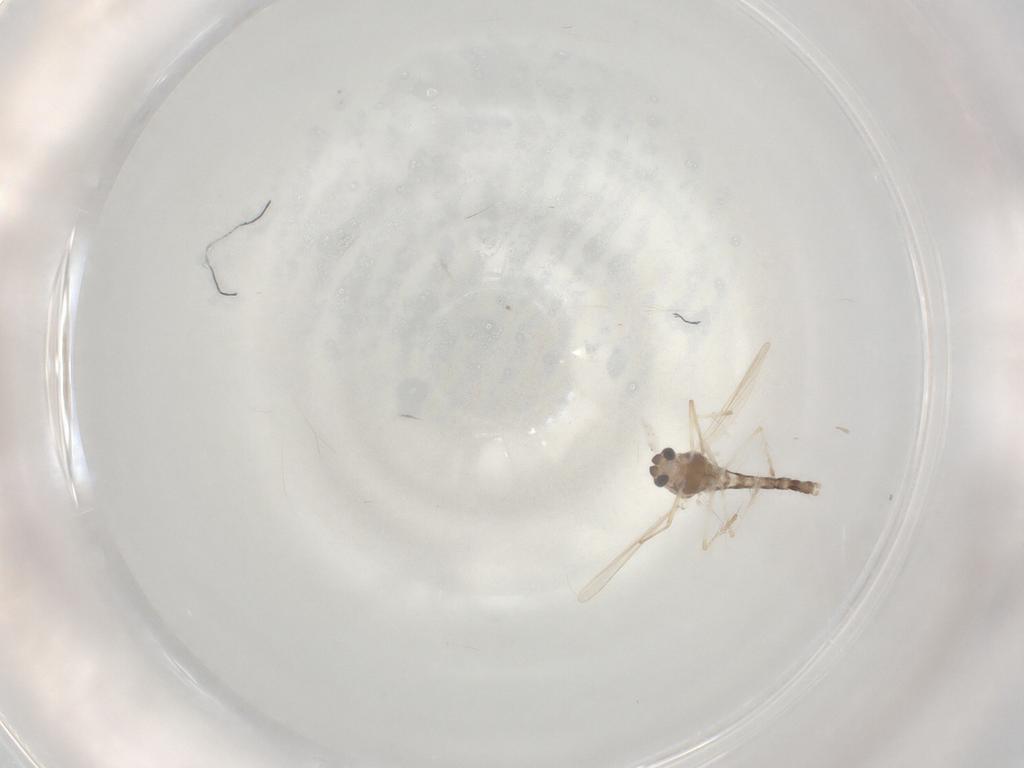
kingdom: Animalia
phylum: Arthropoda
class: Insecta
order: Diptera
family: Chironomidae
